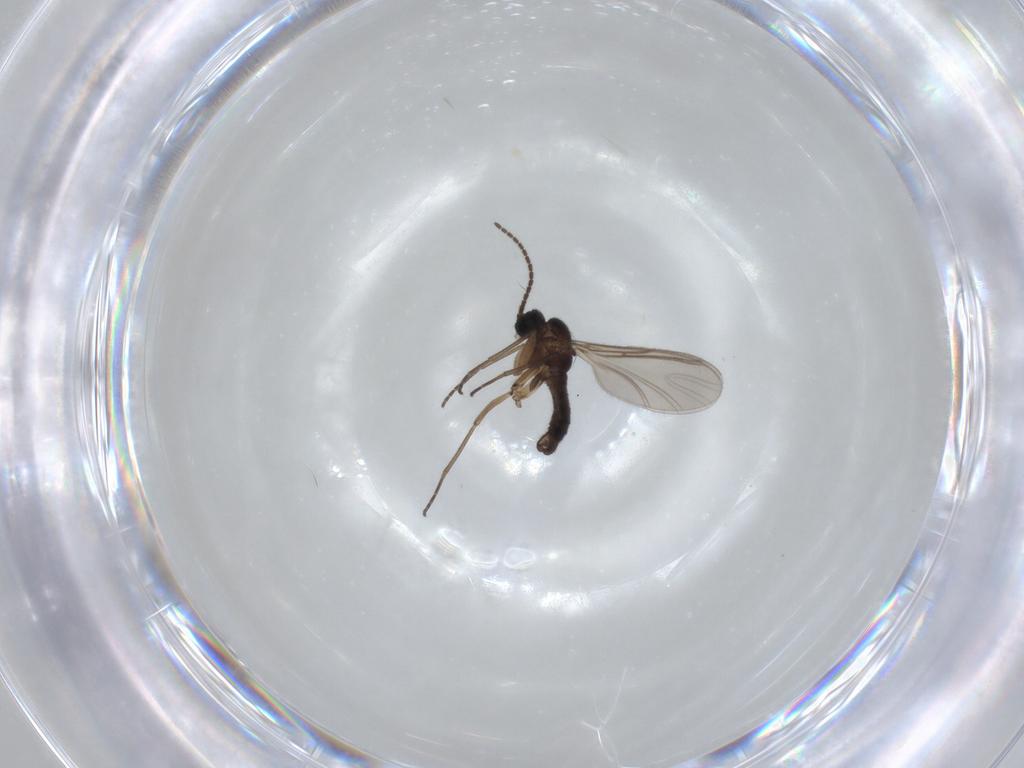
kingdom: Animalia
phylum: Arthropoda
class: Insecta
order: Diptera
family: Sciaridae
